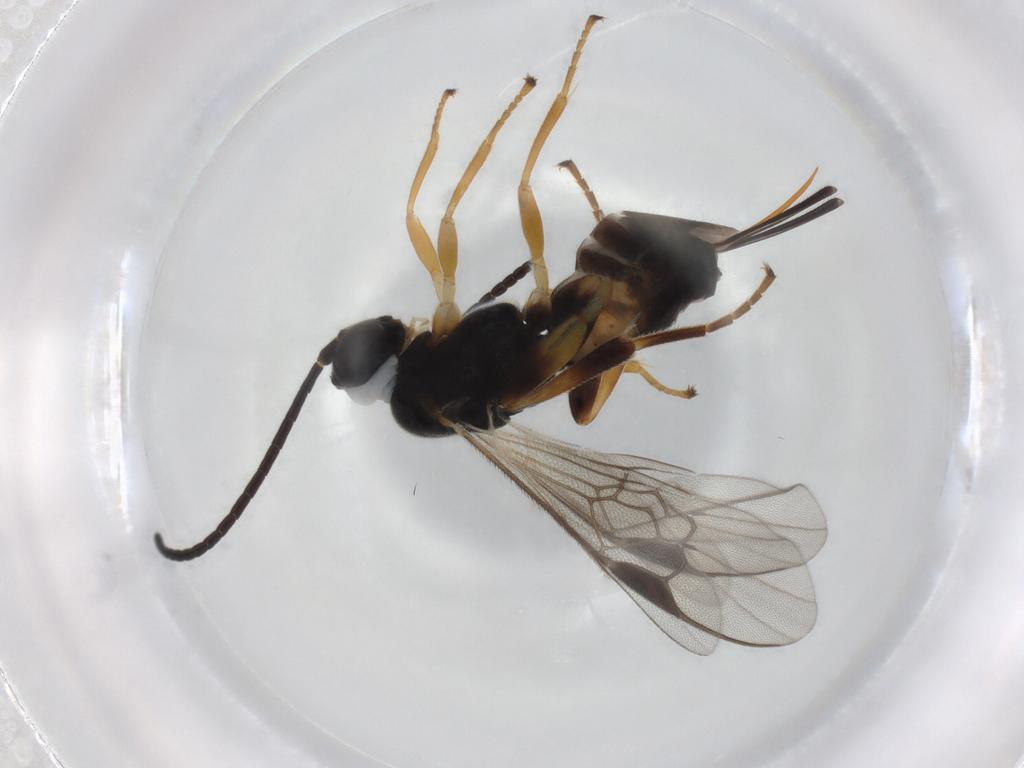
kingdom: Animalia
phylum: Arthropoda
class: Insecta
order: Hymenoptera
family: Braconidae
